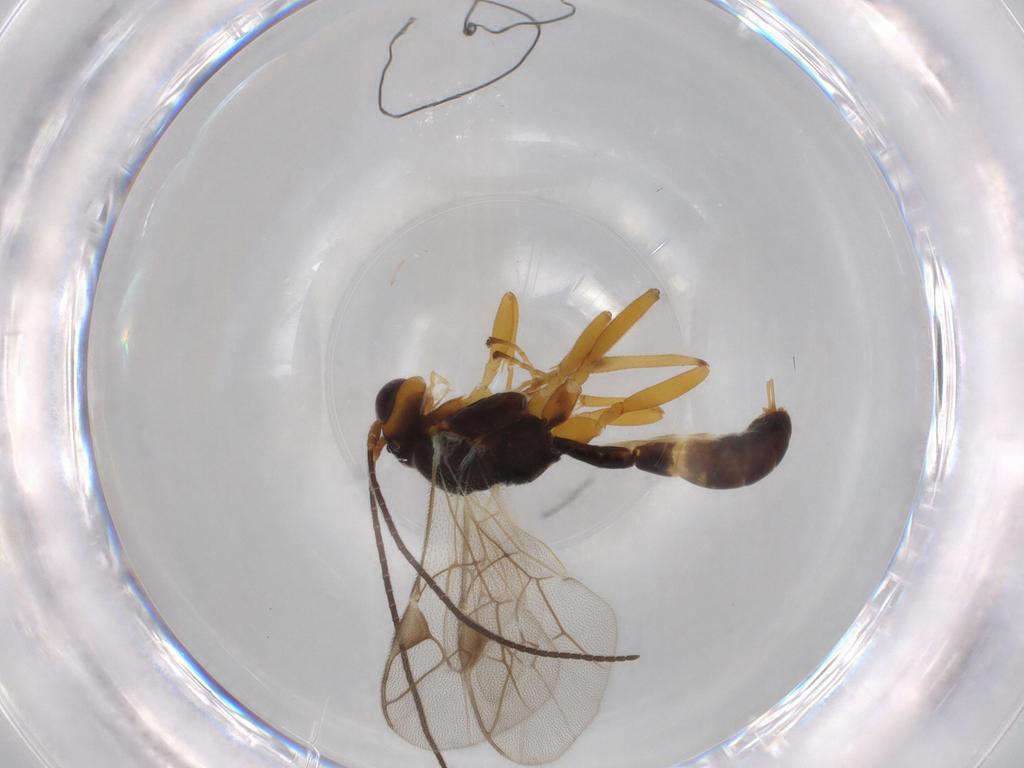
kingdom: Animalia
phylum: Arthropoda
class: Insecta
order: Hymenoptera
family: Ichneumonidae
